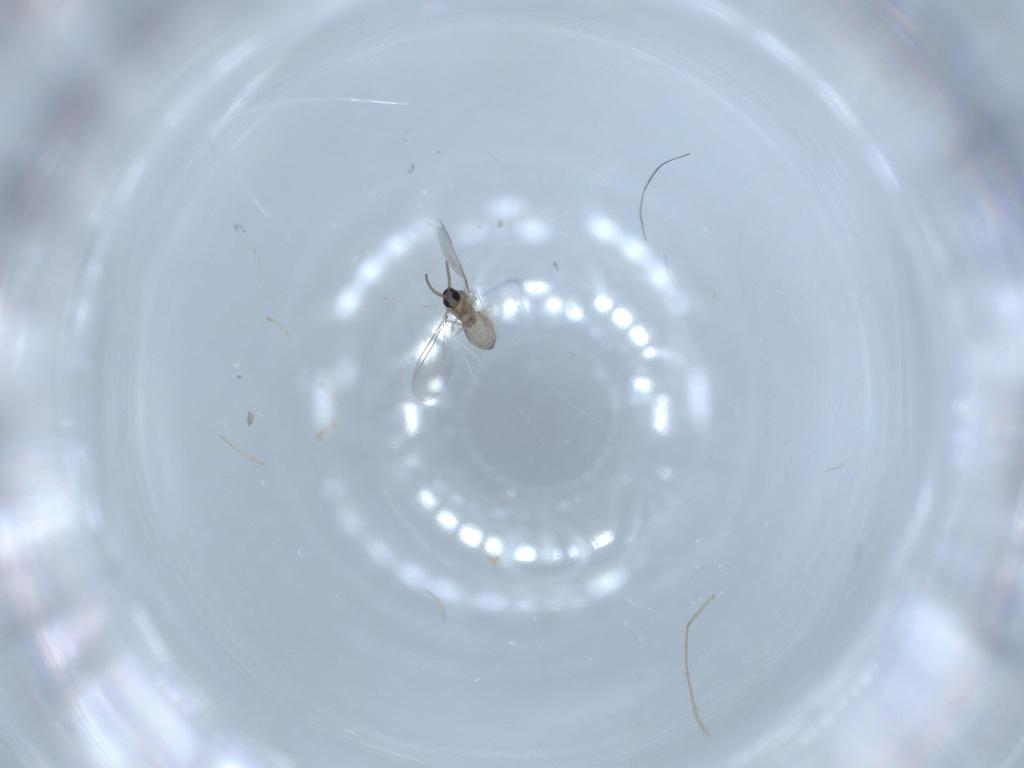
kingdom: Animalia
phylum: Arthropoda
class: Insecta
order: Diptera
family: Cecidomyiidae
